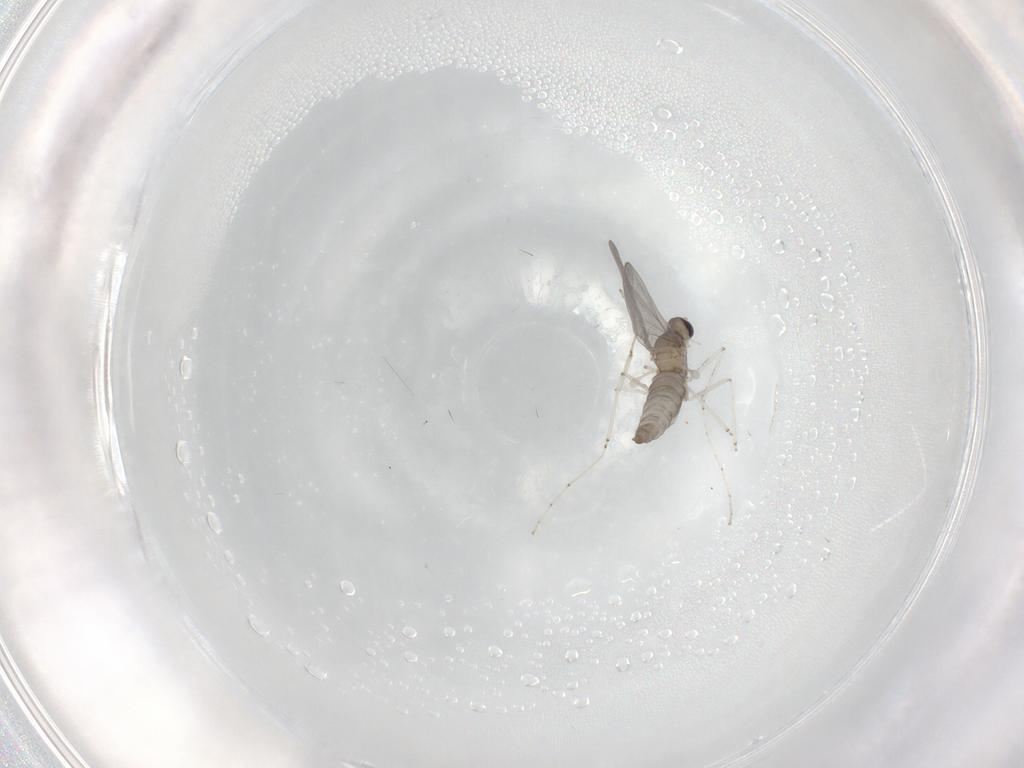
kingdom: Animalia
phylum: Arthropoda
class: Insecta
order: Diptera
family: Cecidomyiidae
